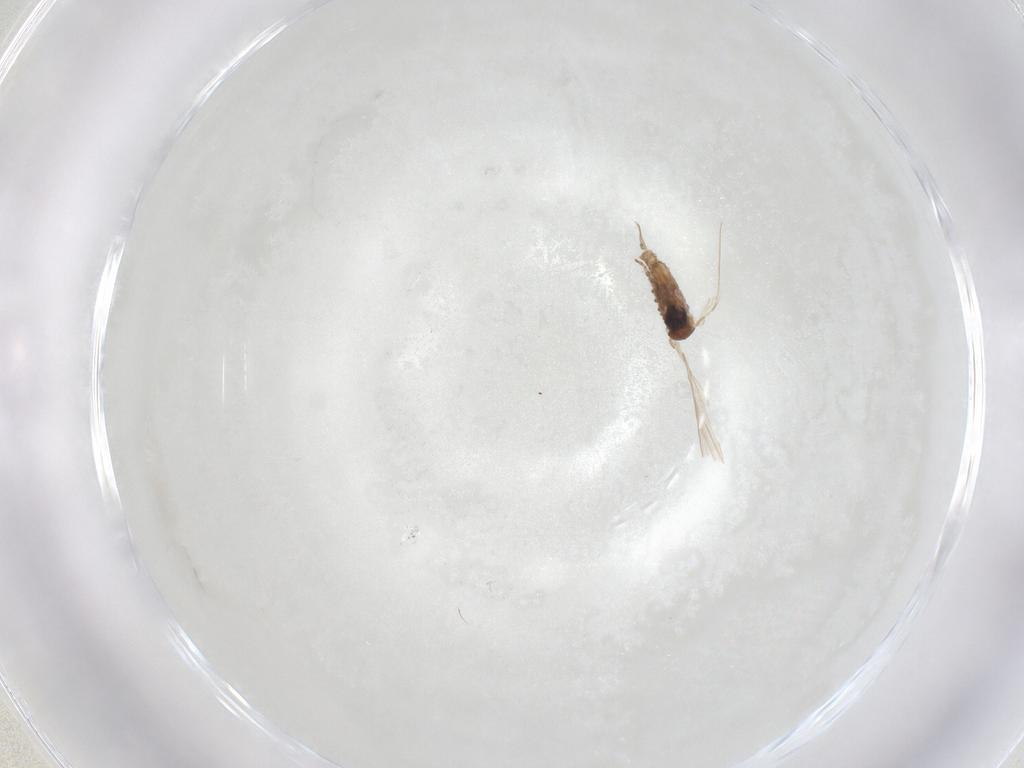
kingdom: Animalia
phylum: Arthropoda
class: Insecta
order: Diptera
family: Psychodidae
